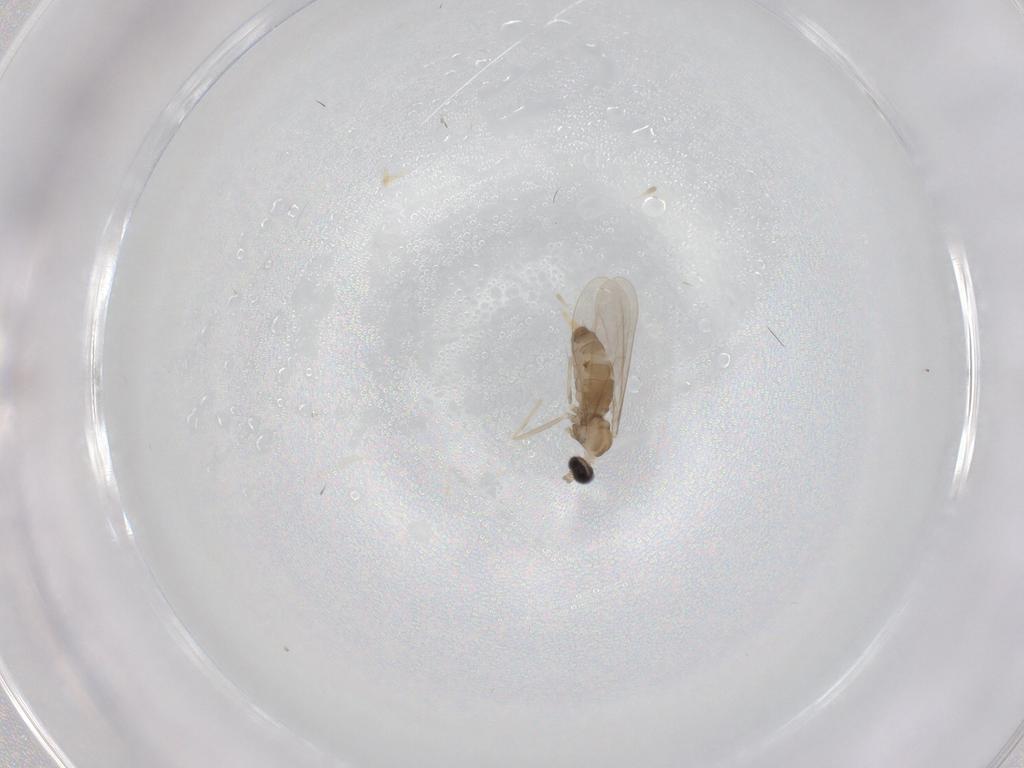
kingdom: Animalia
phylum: Arthropoda
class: Insecta
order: Diptera
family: Cecidomyiidae
